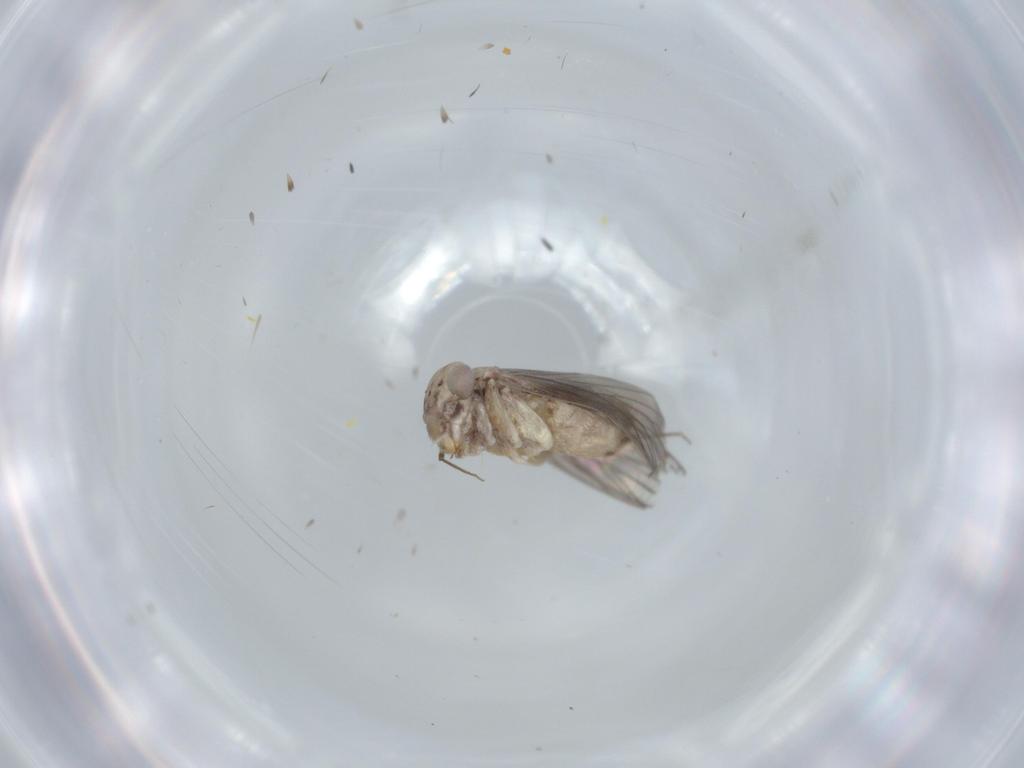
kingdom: Animalia
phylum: Arthropoda
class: Insecta
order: Psocodea
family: Lepidopsocidae
